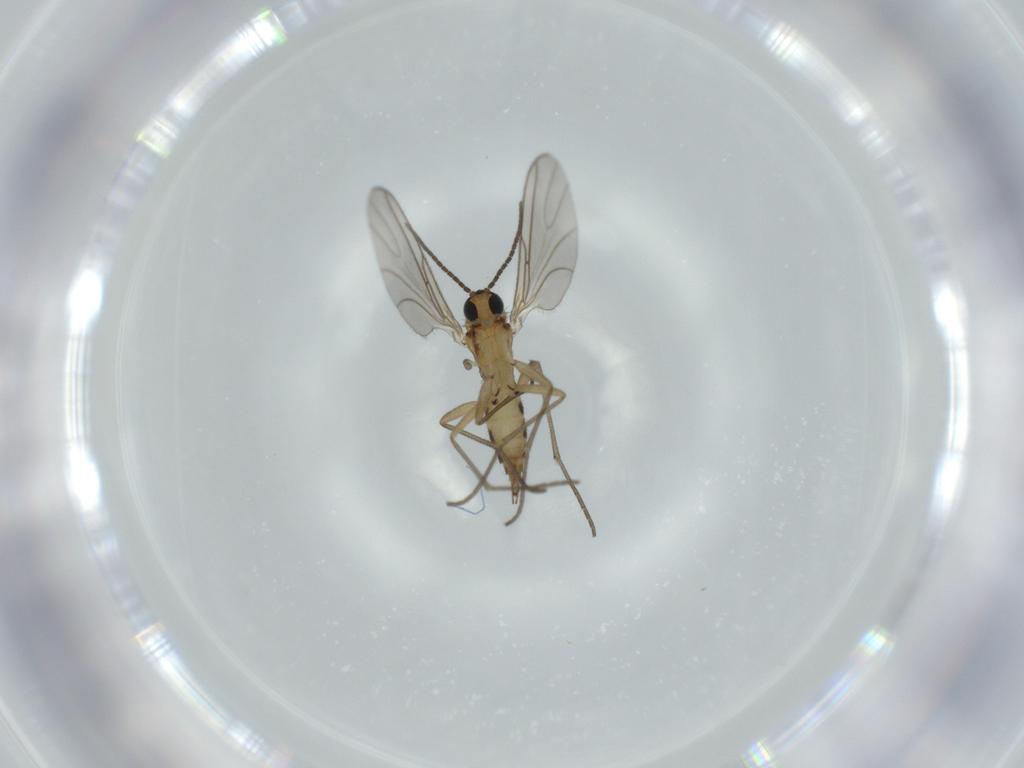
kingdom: Animalia
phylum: Arthropoda
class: Insecta
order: Diptera
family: Sciaridae
